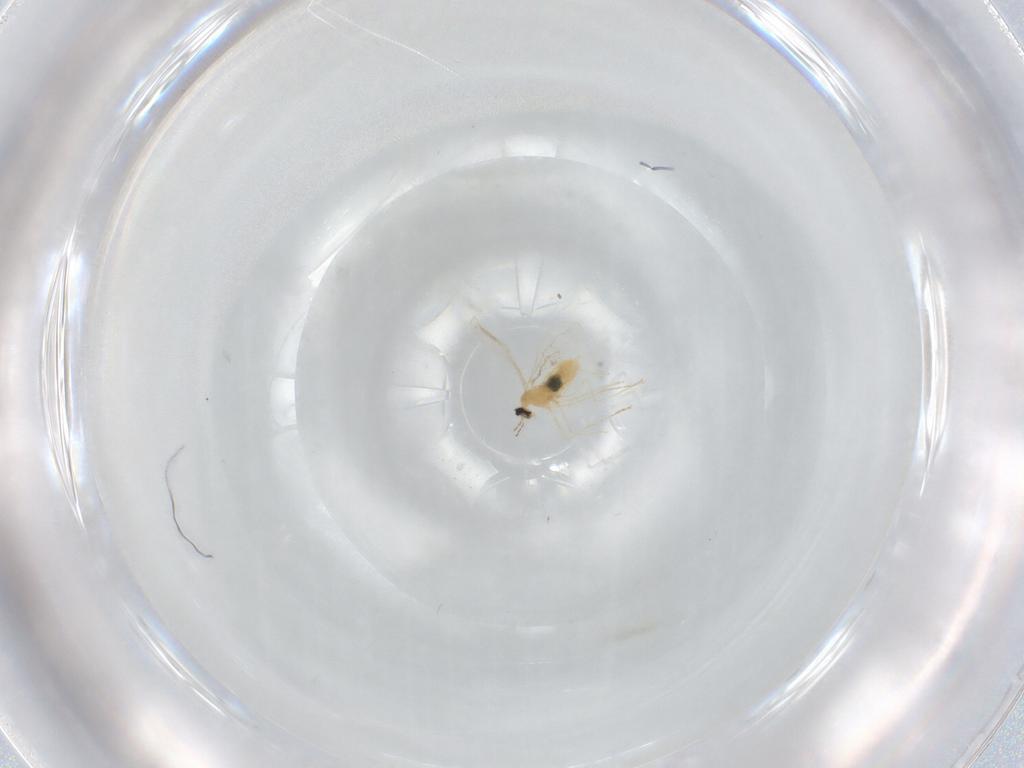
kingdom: Animalia
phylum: Arthropoda
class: Insecta
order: Diptera
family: Cecidomyiidae
